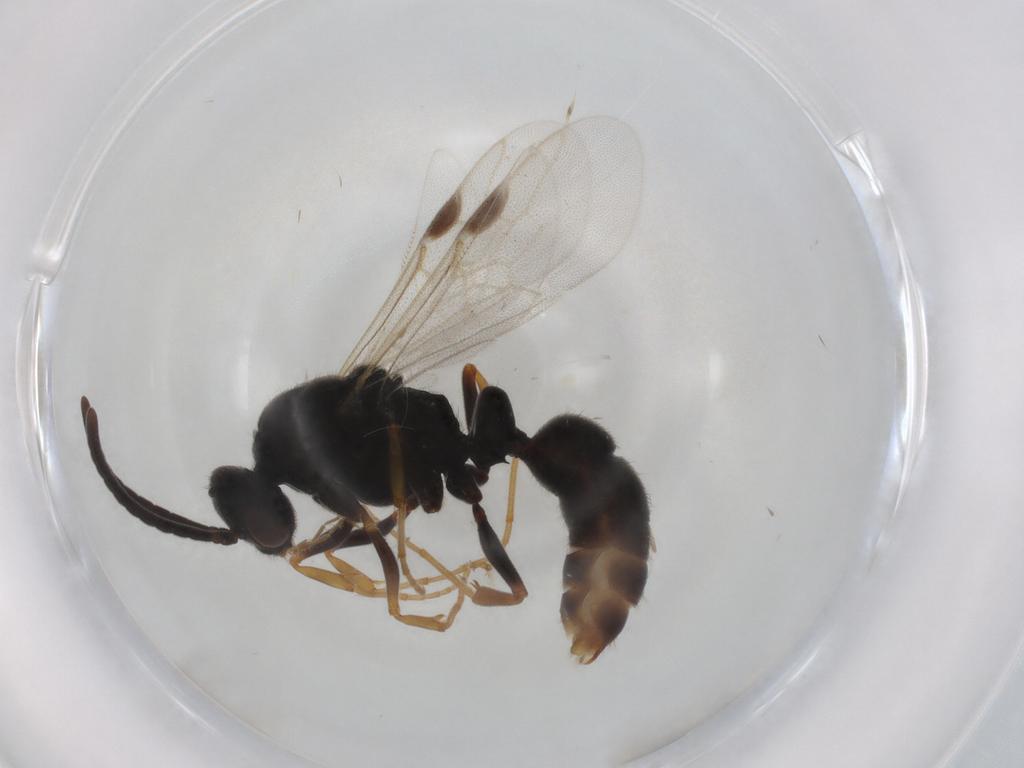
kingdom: Animalia
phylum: Arthropoda
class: Insecta
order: Hymenoptera
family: Formicidae
